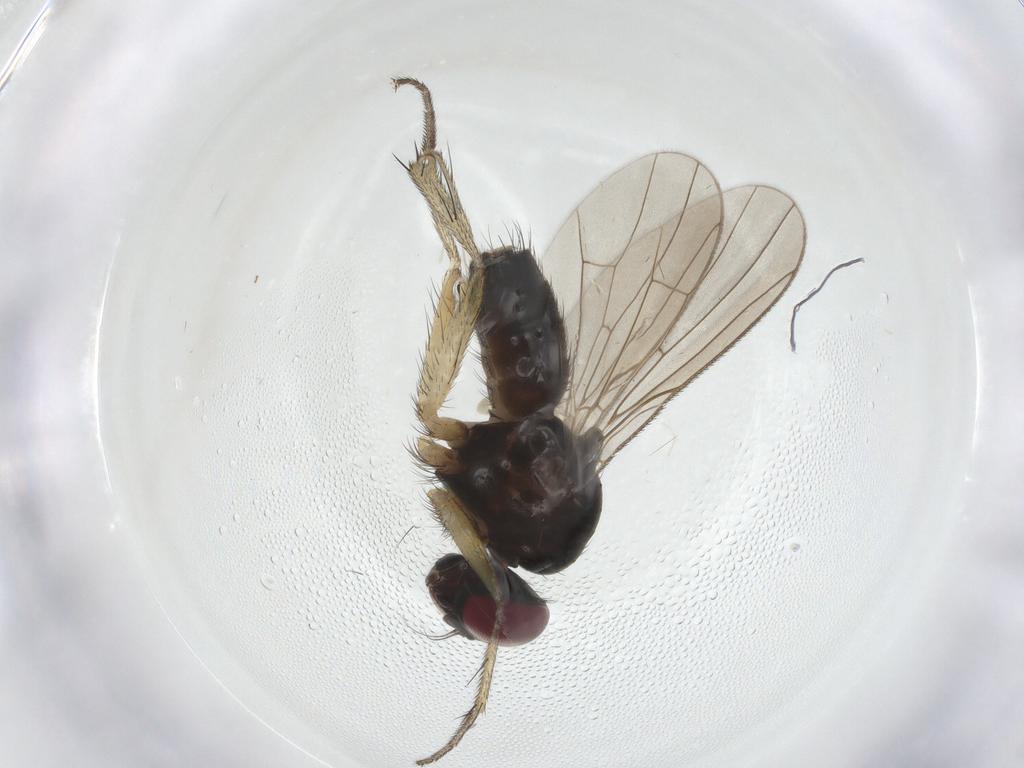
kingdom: Animalia
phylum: Arthropoda
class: Insecta
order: Diptera
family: Muscidae
